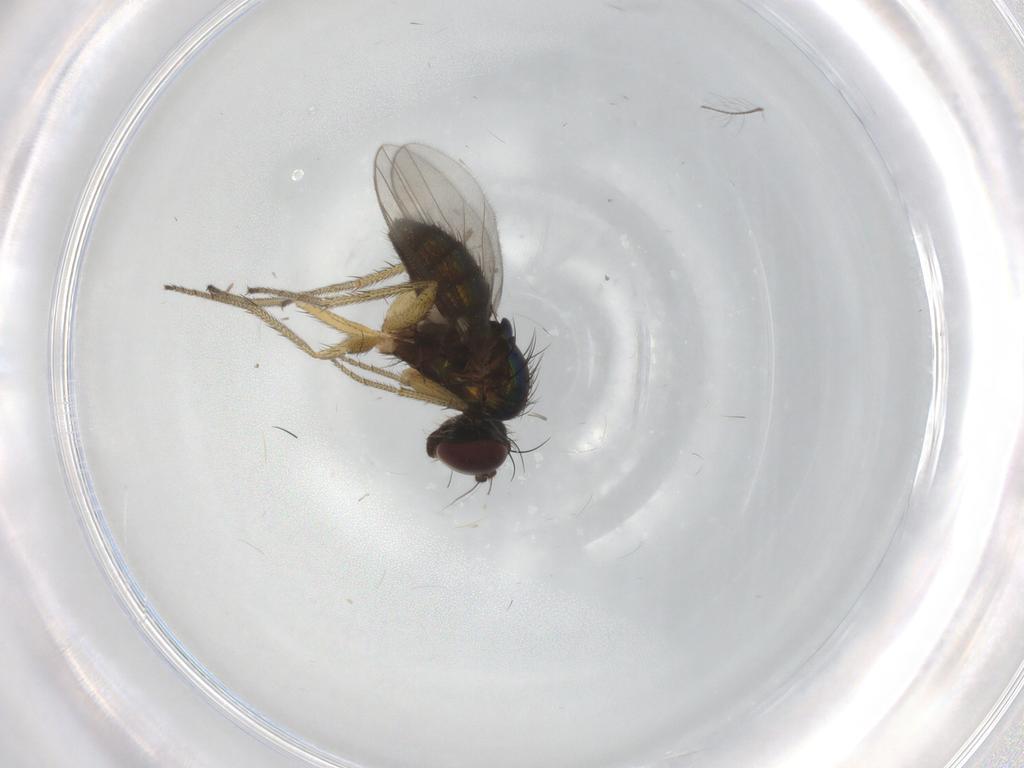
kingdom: Animalia
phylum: Arthropoda
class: Insecta
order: Diptera
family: Dolichopodidae
